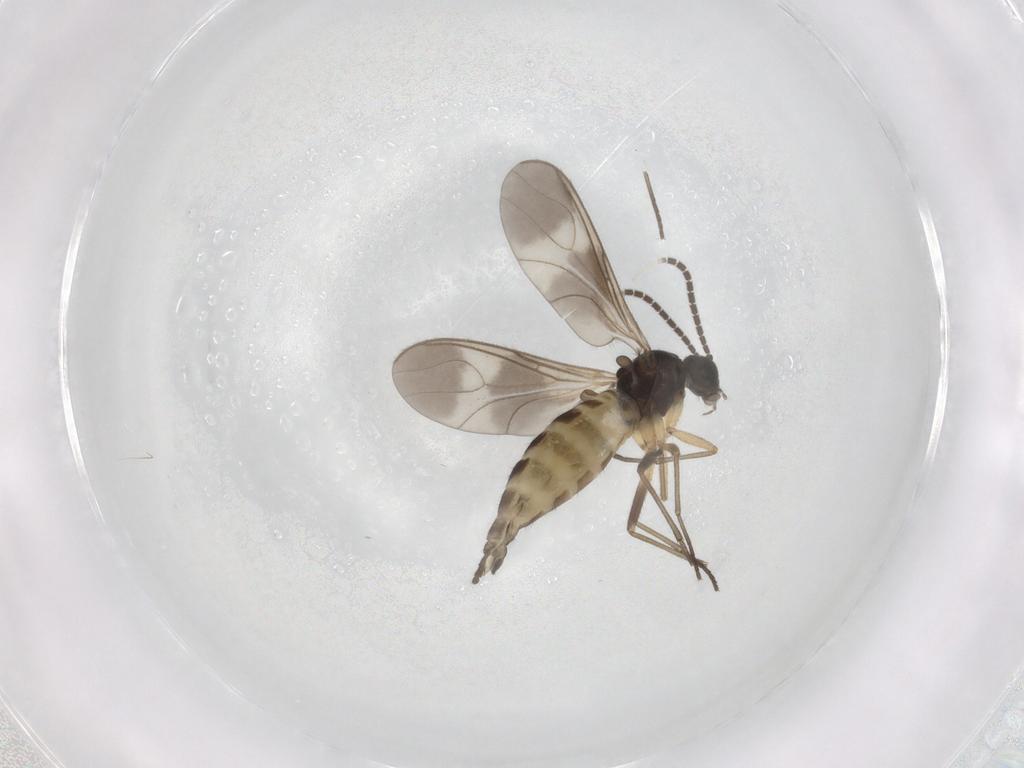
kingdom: Animalia
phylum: Arthropoda
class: Insecta
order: Diptera
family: Sciaridae
